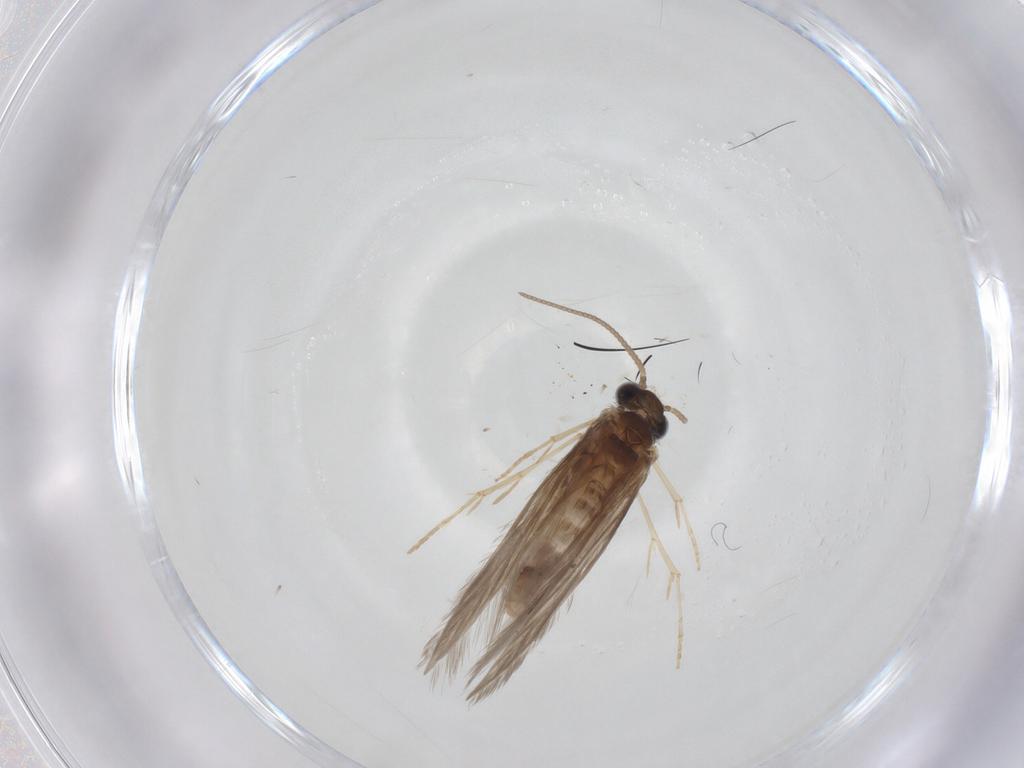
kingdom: Animalia
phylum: Arthropoda
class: Insecta
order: Trichoptera
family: Hydroptilidae
